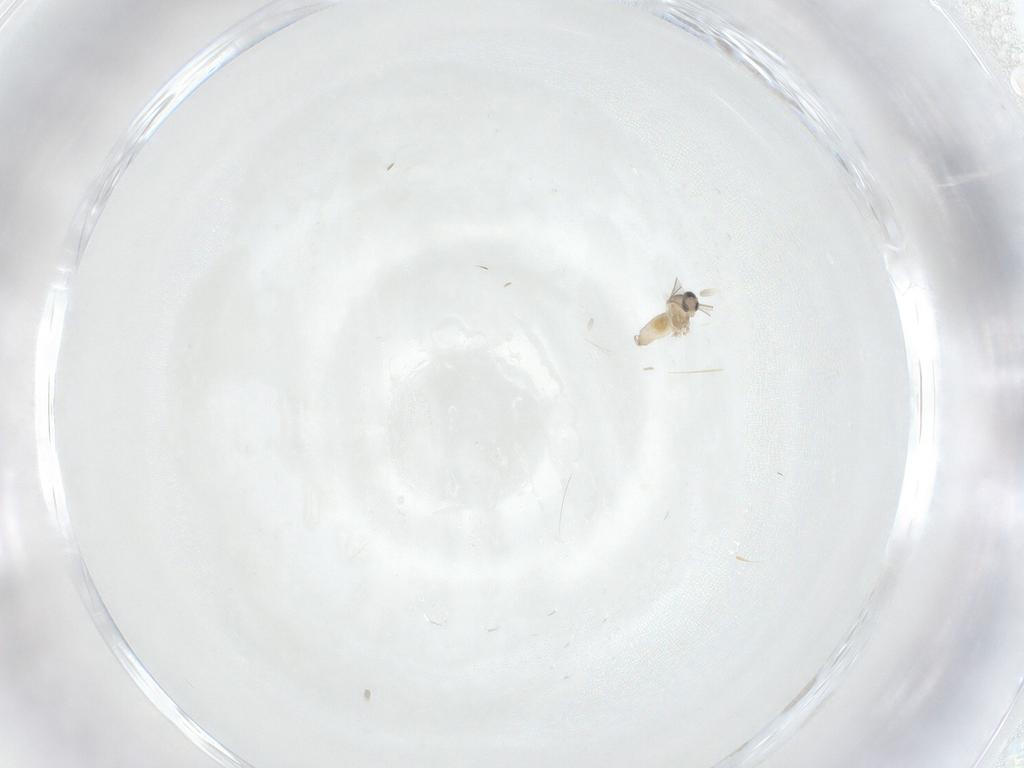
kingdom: Animalia
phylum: Arthropoda
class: Insecta
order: Diptera
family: Cecidomyiidae
